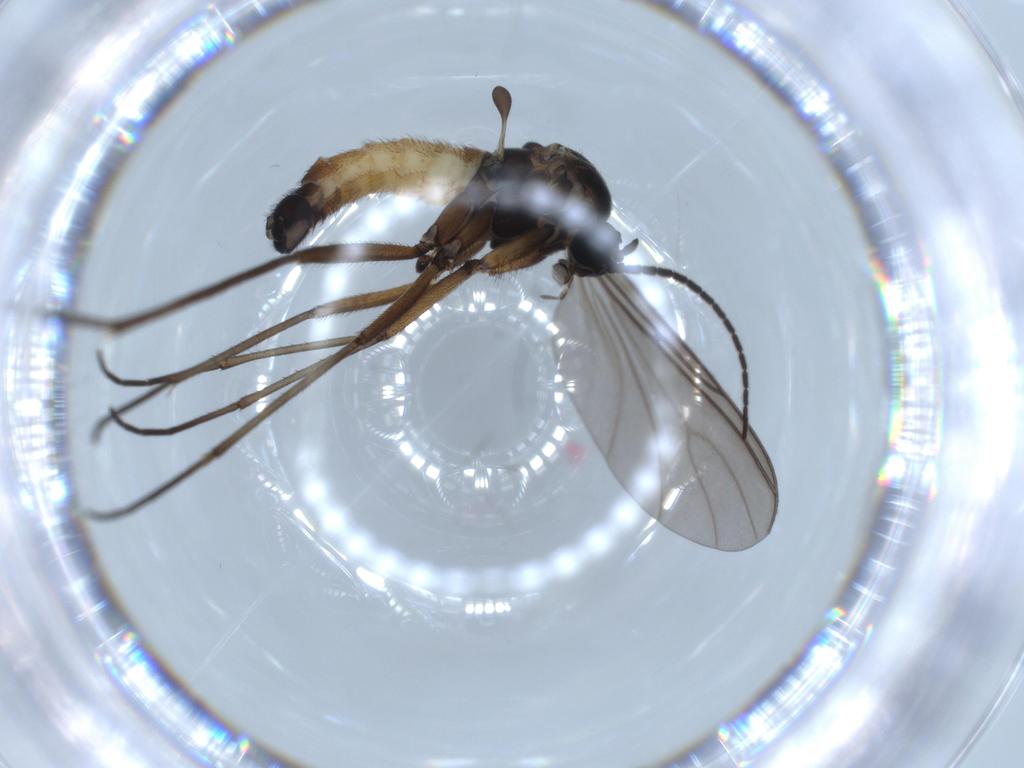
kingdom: Animalia
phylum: Arthropoda
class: Insecta
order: Diptera
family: Sciaridae
